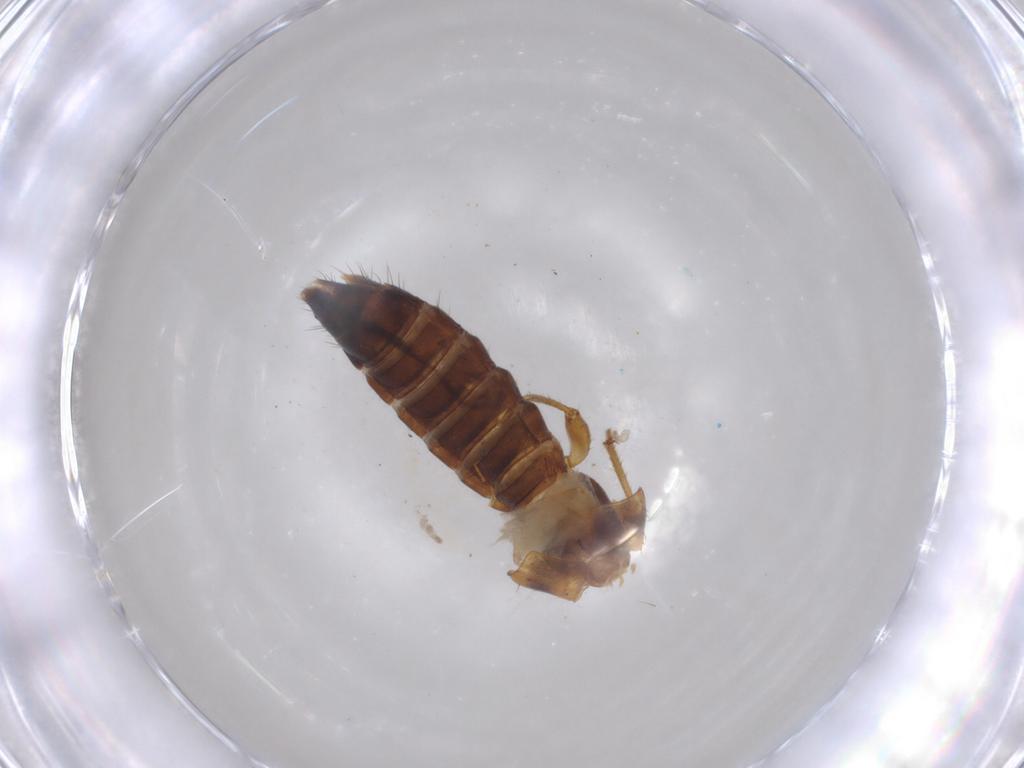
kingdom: Animalia
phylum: Arthropoda
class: Insecta
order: Coleoptera
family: Staphylinidae
